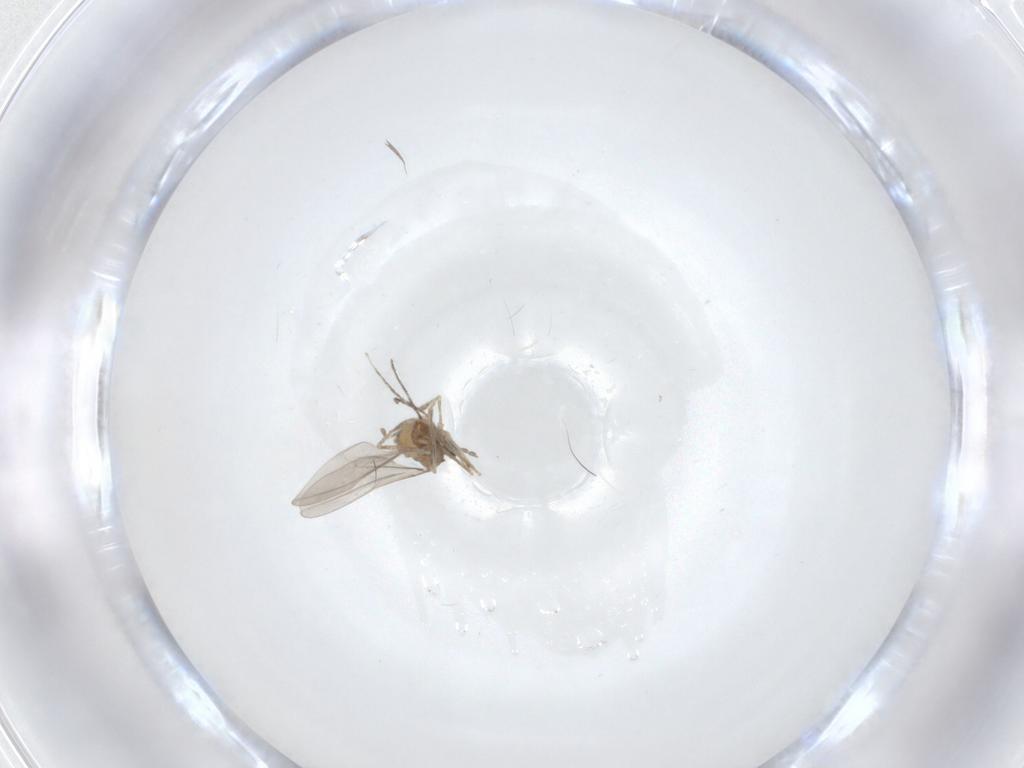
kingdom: Animalia
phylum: Arthropoda
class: Insecta
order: Diptera
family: Cecidomyiidae
